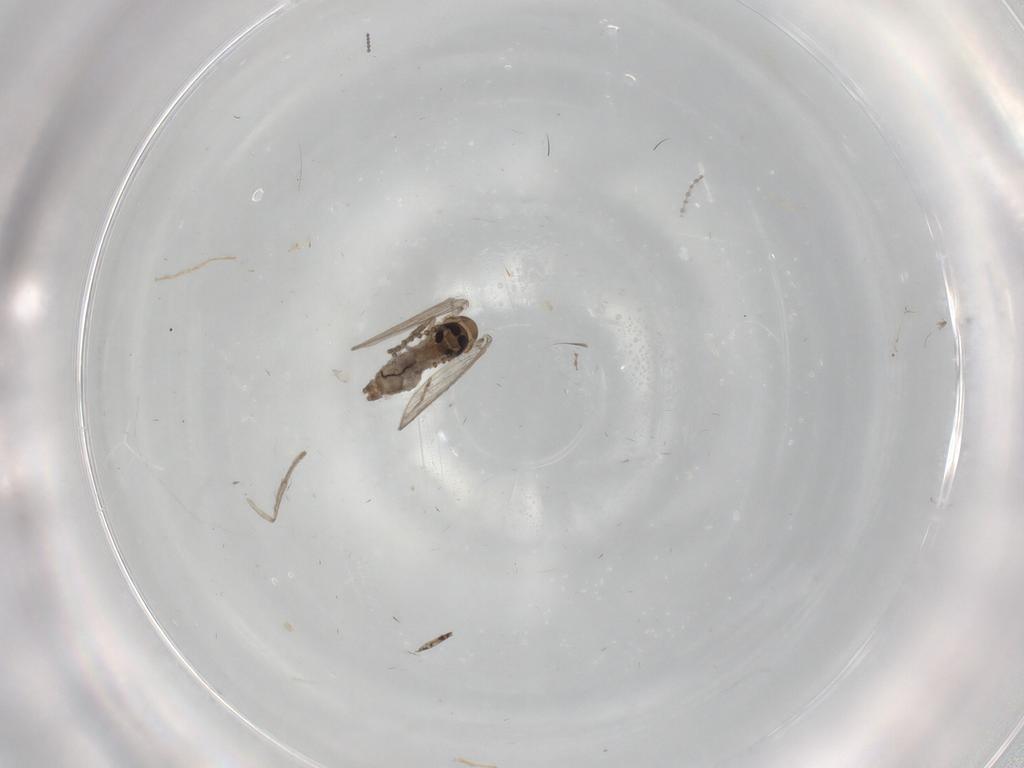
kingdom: Animalia
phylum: Arthropoda
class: Insecta
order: Diptera
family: Psychodidae
